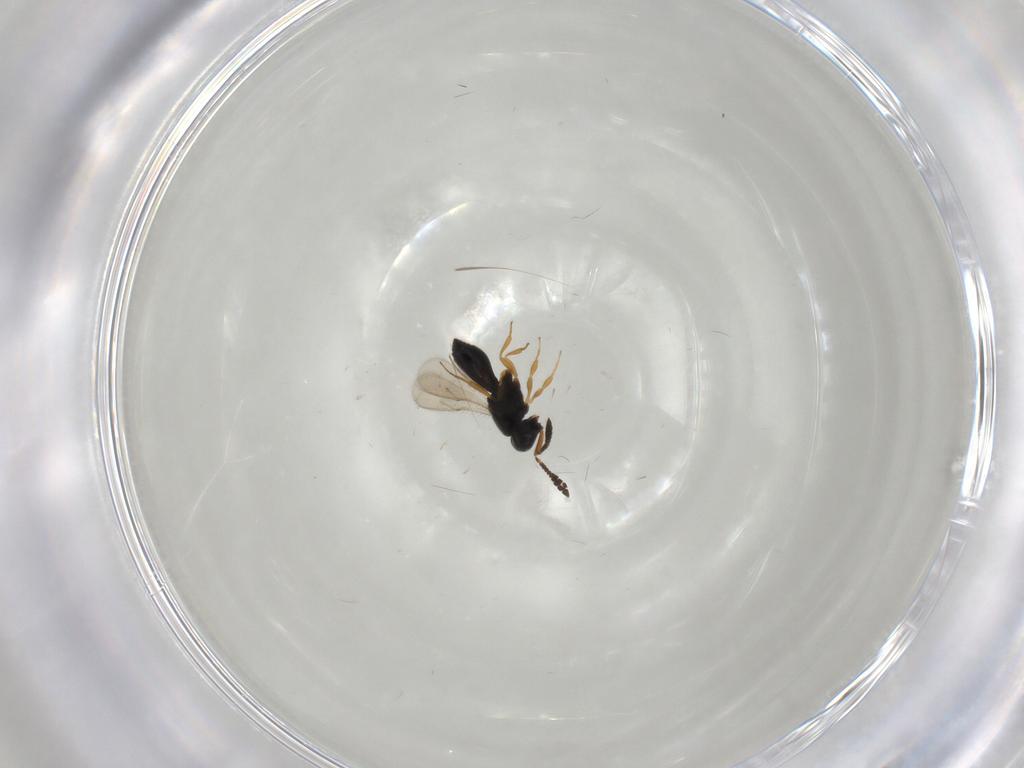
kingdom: Animalia
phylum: Arthropoda
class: Insecta
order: Hymenoptera
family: Scelionidae
